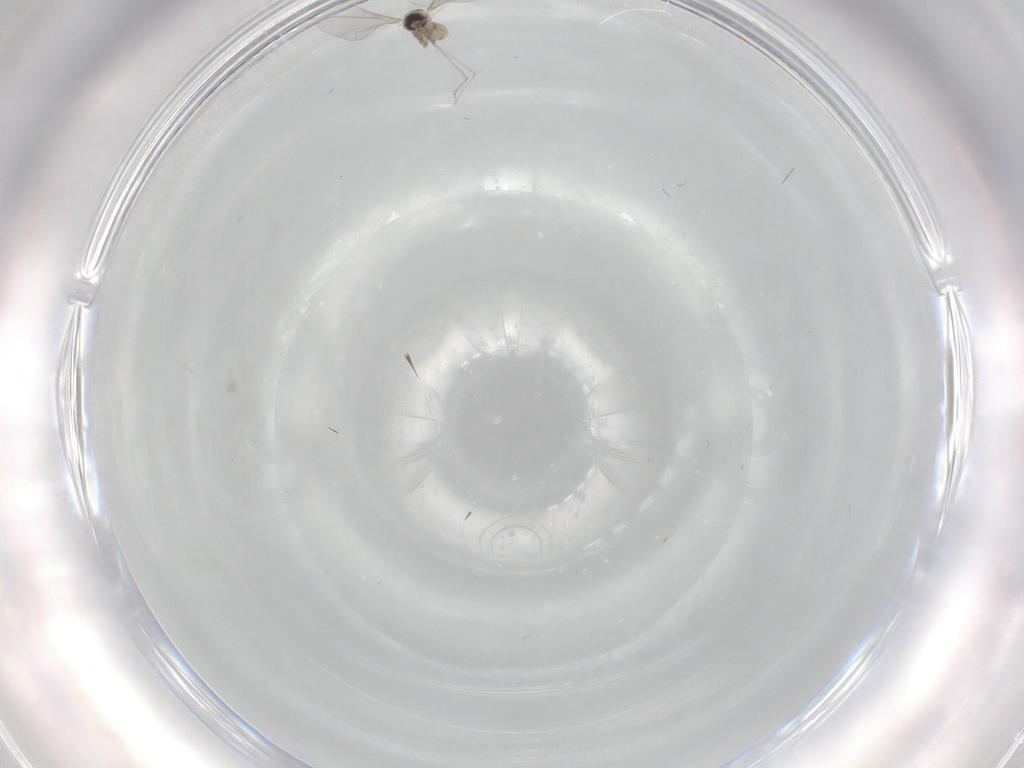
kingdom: Animalia
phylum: Arthropoda
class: Insecta
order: Diptera
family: Cecidomyiidae
